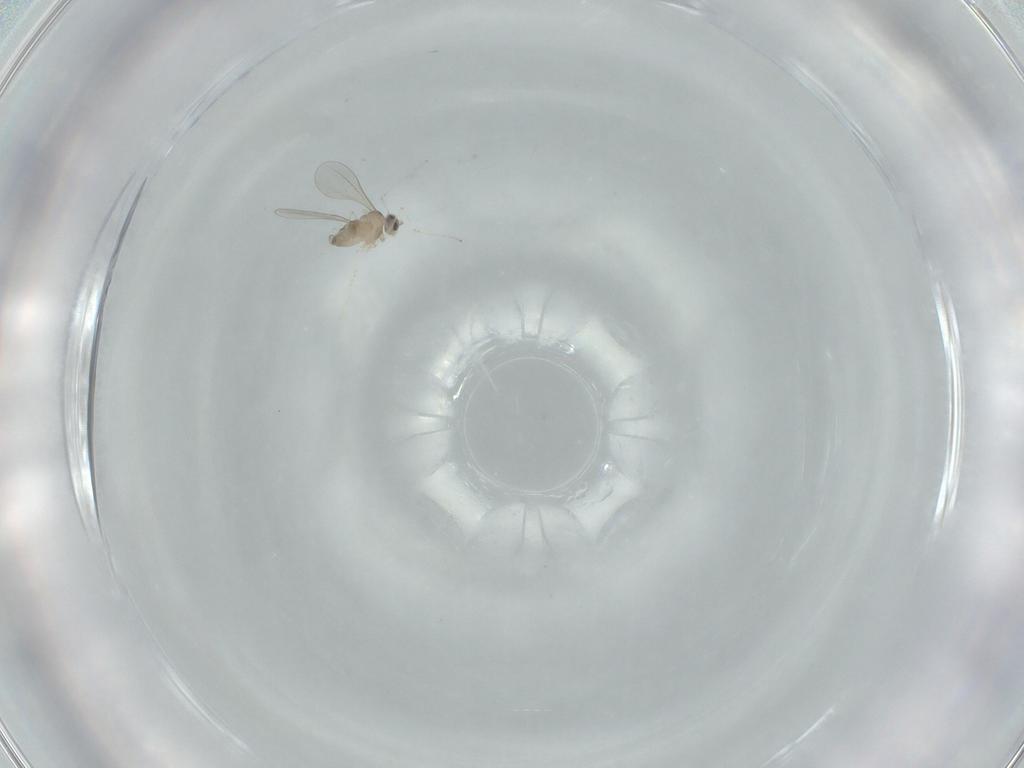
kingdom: Animalia
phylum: Arthropoda
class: Insecta
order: Diptera
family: Cecidomyiidae
